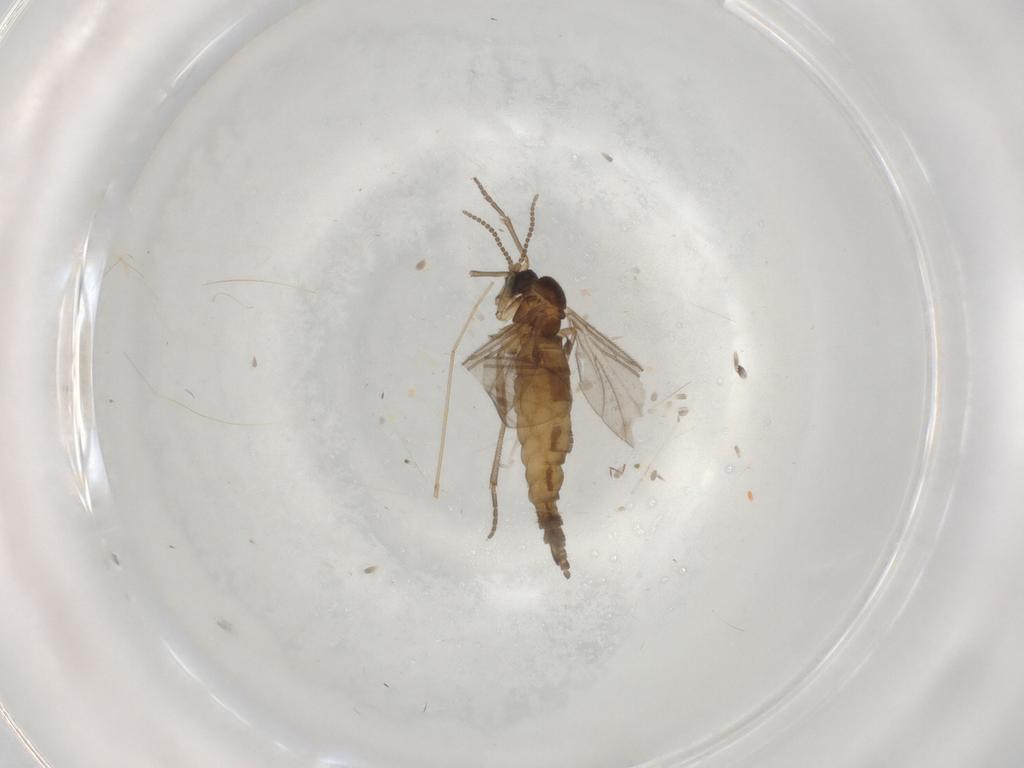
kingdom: Animalia
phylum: Arthropoda
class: Insecta
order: Diptera
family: Sciaridae
